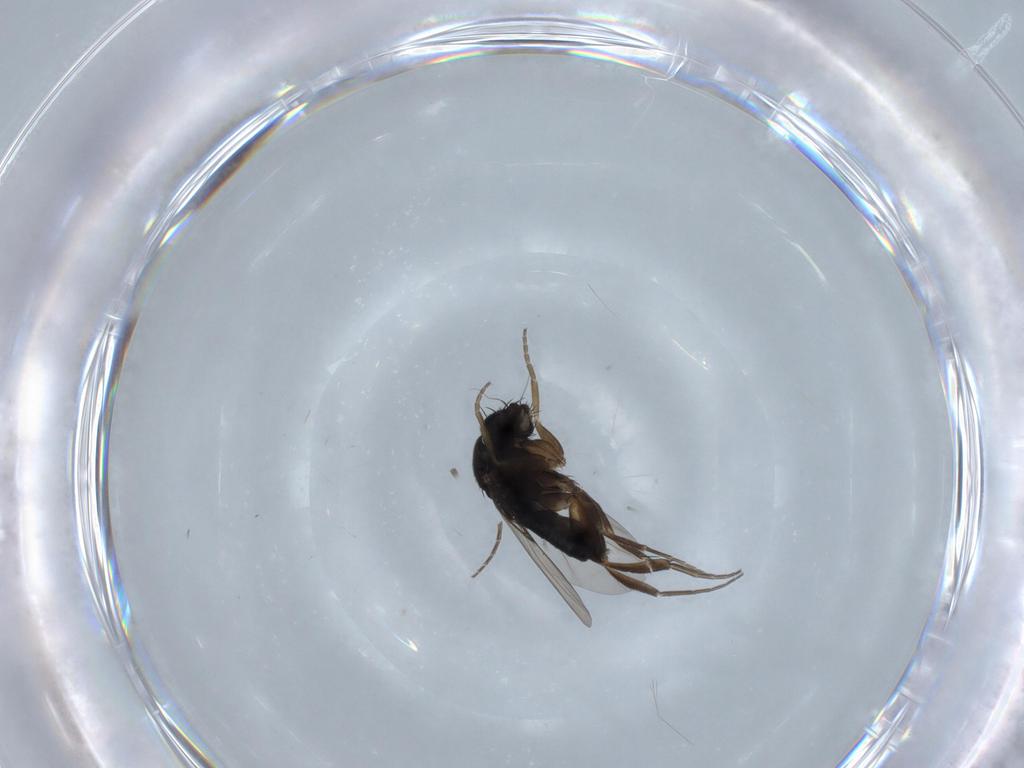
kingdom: Animalia
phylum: Arthropoda
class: Insecta
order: Diptera
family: Phoridae
